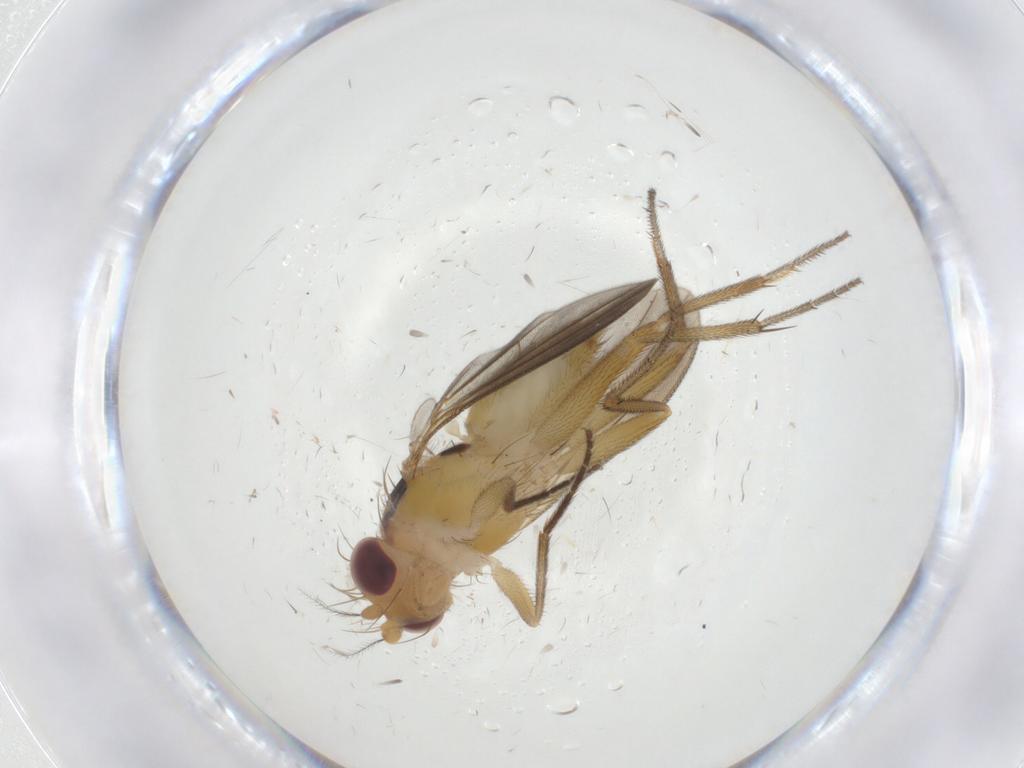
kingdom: Animalia
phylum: Arthropoda
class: Insecta
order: Diptera
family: Clusiidae
